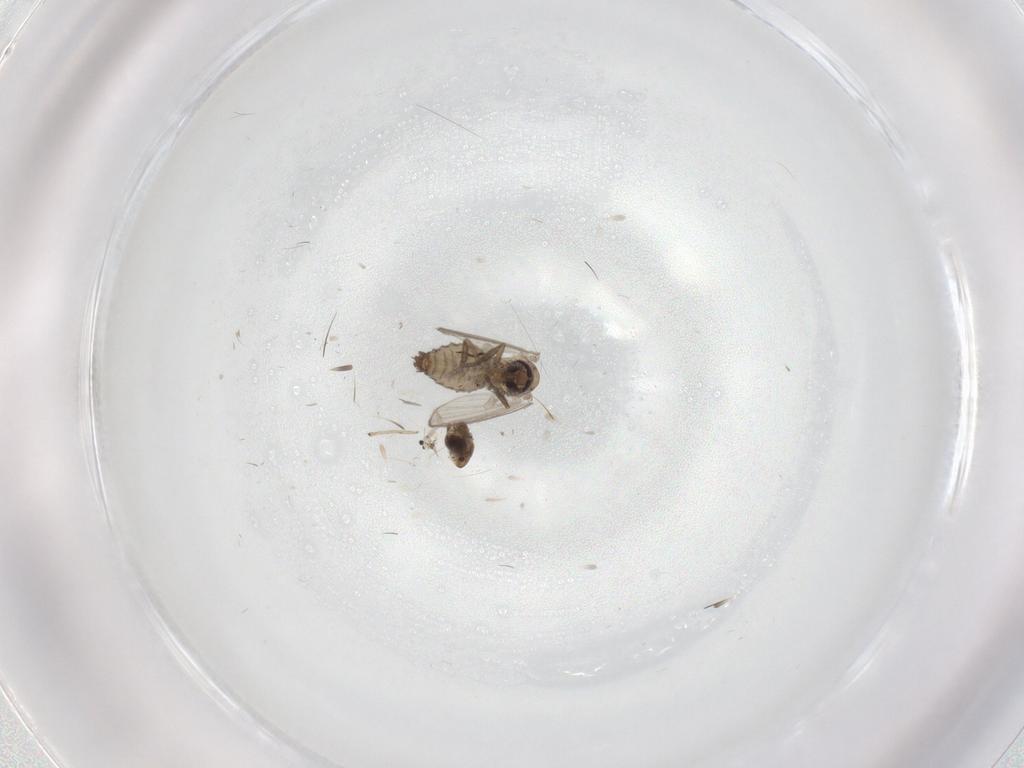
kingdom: Animalia
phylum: Arthropoda
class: Insecta
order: Diptera
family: Psychodidae
